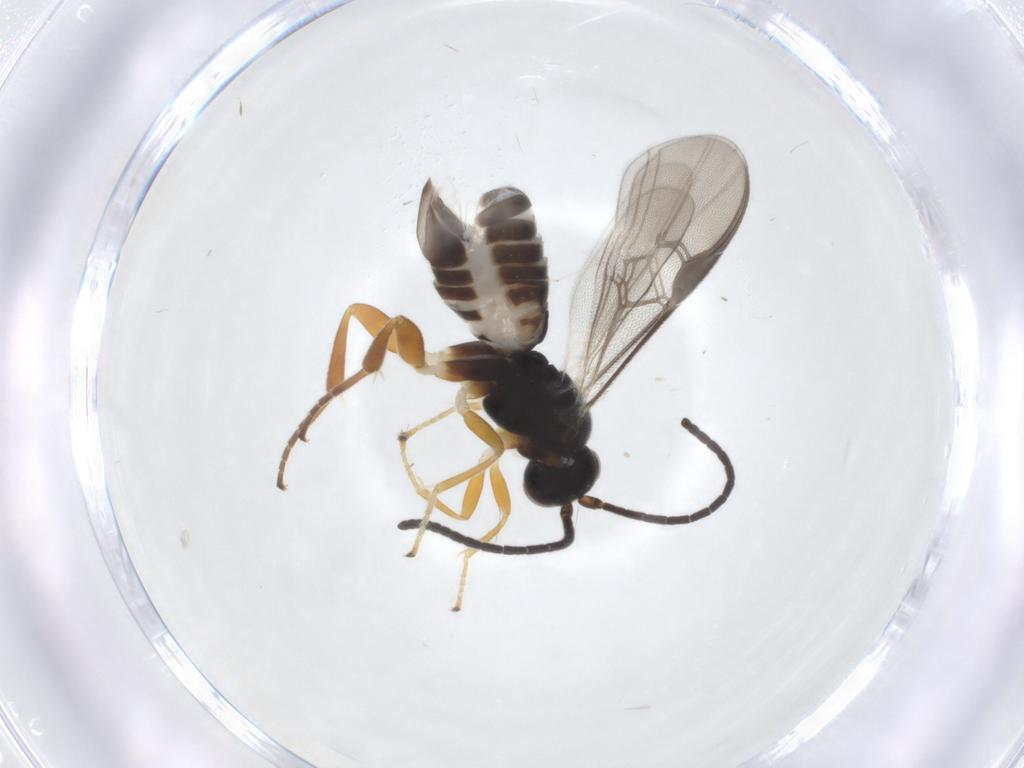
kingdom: Animalia
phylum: Arthropoda
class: Insecta
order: Hymenoptera
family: Braconidae
